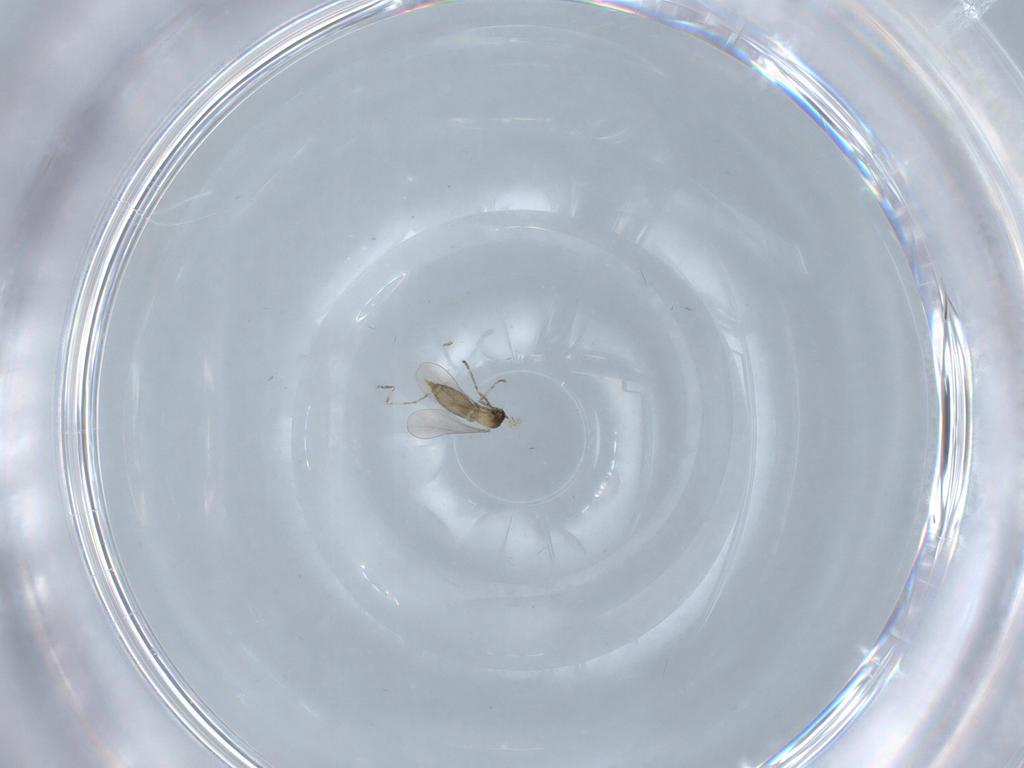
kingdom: Animalia
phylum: Arthropoda
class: Insecta
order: Diptera
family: Cecidomyiidae
